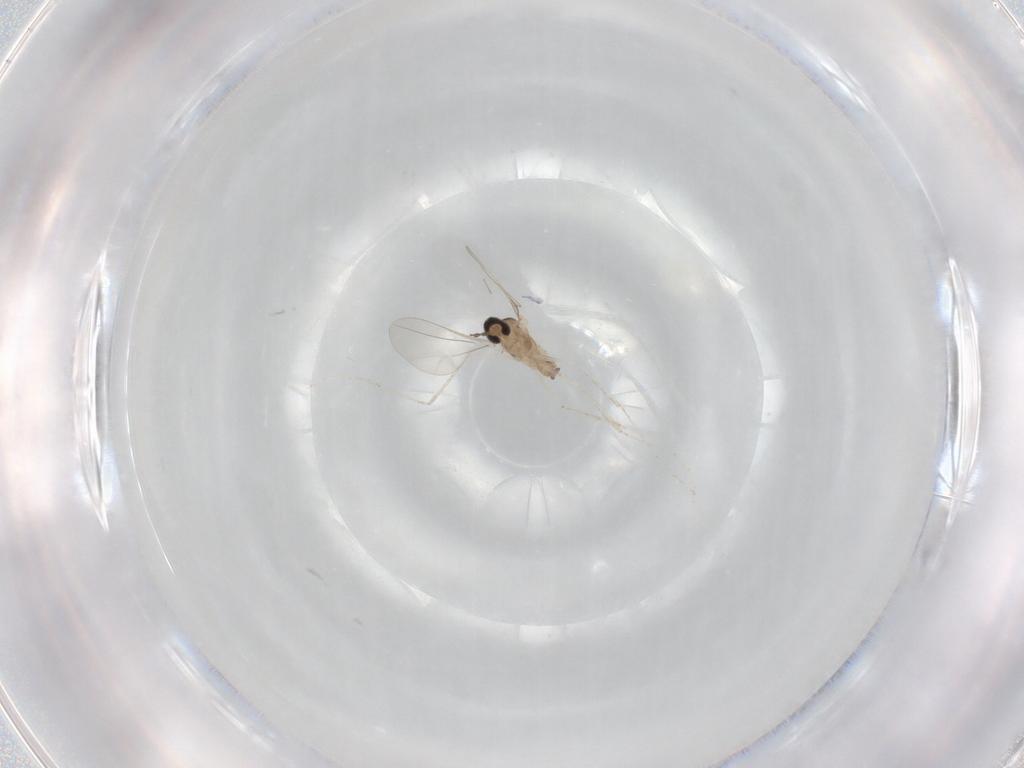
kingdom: Animalia
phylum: Arthropoda
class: Insecta
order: Diptera
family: Cecidomyiidae
